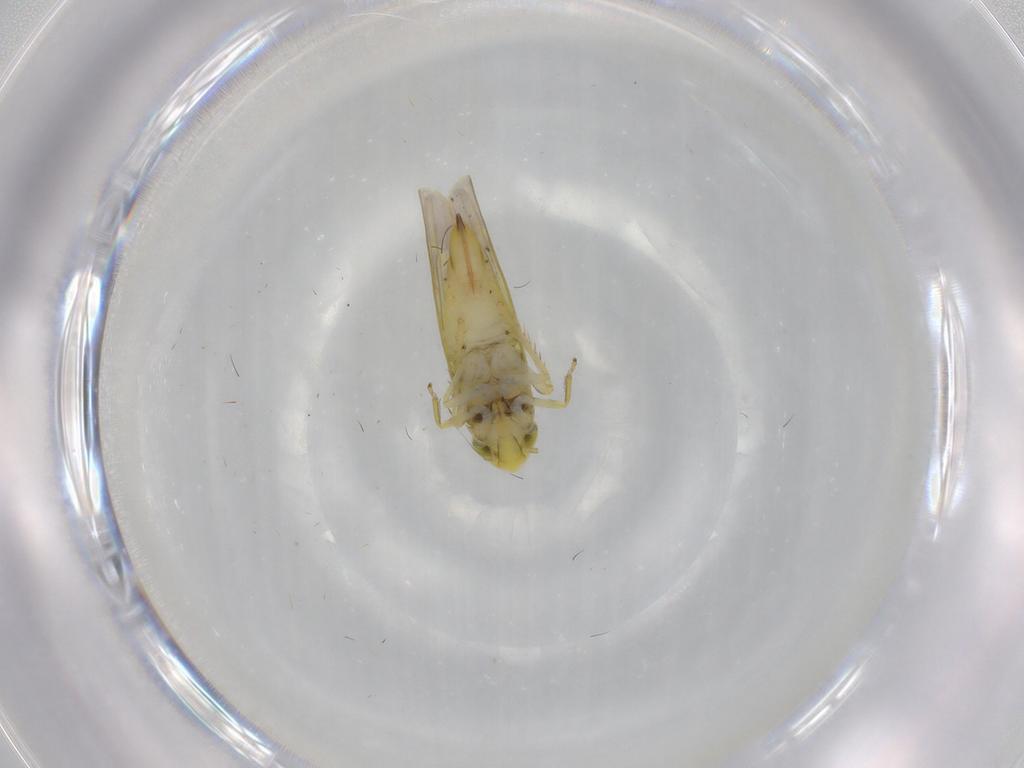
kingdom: Animalia
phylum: Arthropoda
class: Insecta
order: Hemiptera
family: Cicadellidae
